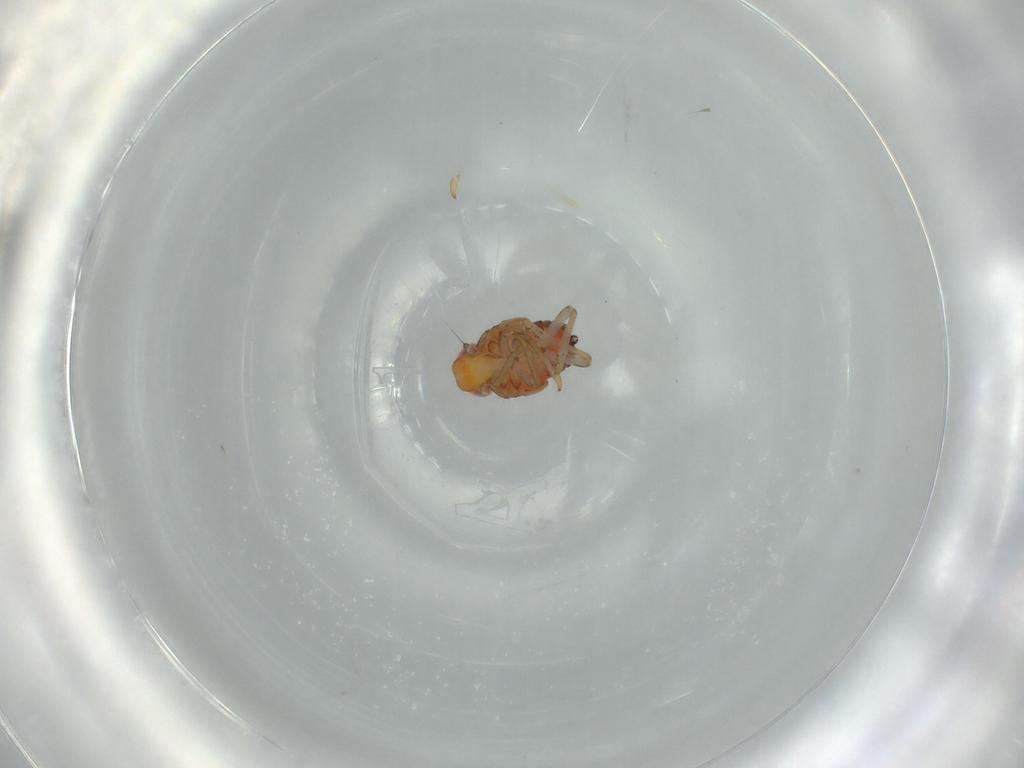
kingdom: Animalia
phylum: Arthropoda
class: Insecta
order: Hemiptera
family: Issidae
